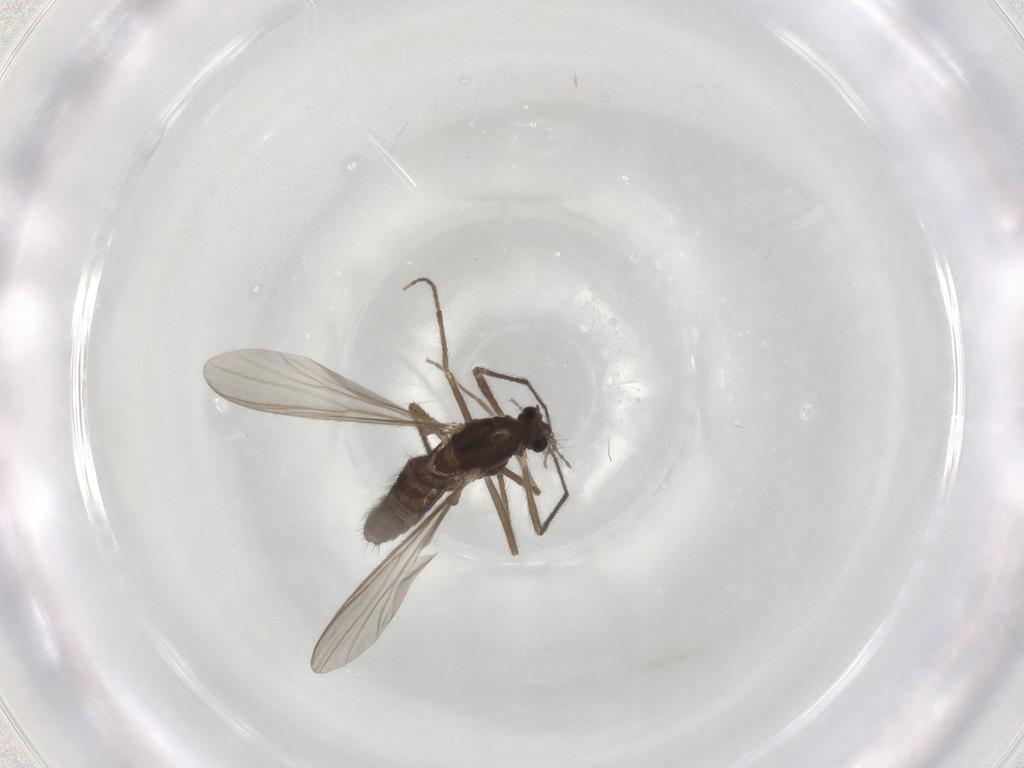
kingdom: Animalia
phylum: Arthropoda
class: Insecta
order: Diptera
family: Chironomidae
